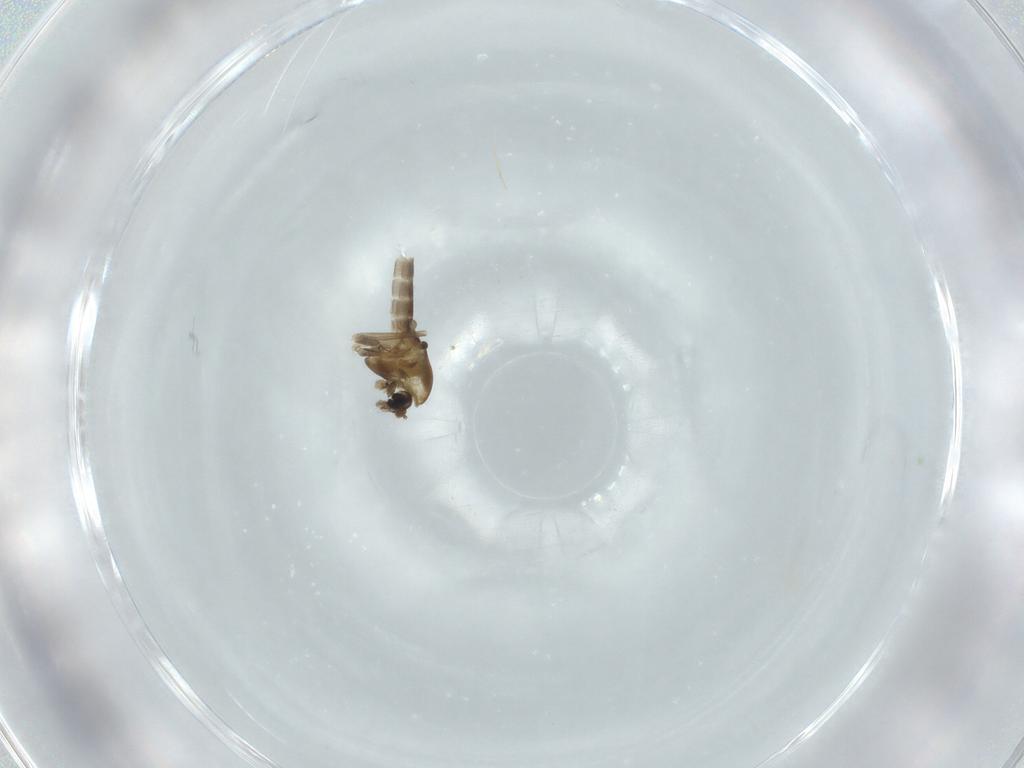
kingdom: Animalia
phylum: Arthropoda
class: Insecta
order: Diptera
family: Chironomidae
